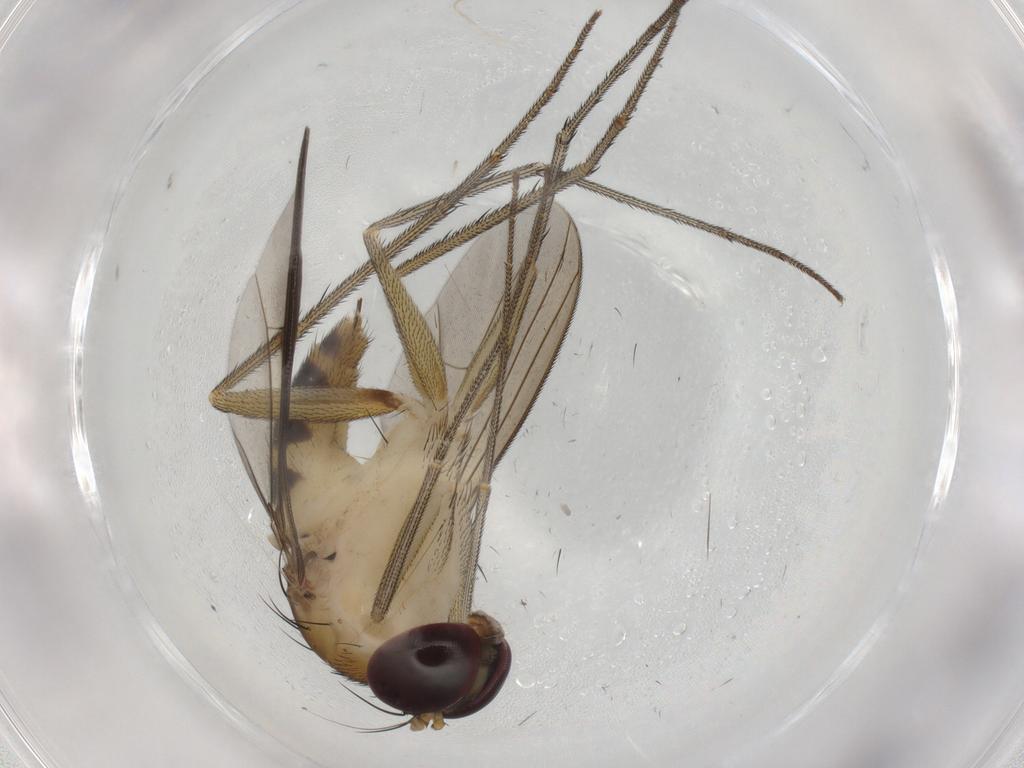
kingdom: Animalia
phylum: Arthropoda
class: Insecta
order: Diptera
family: Dolichopodidae
